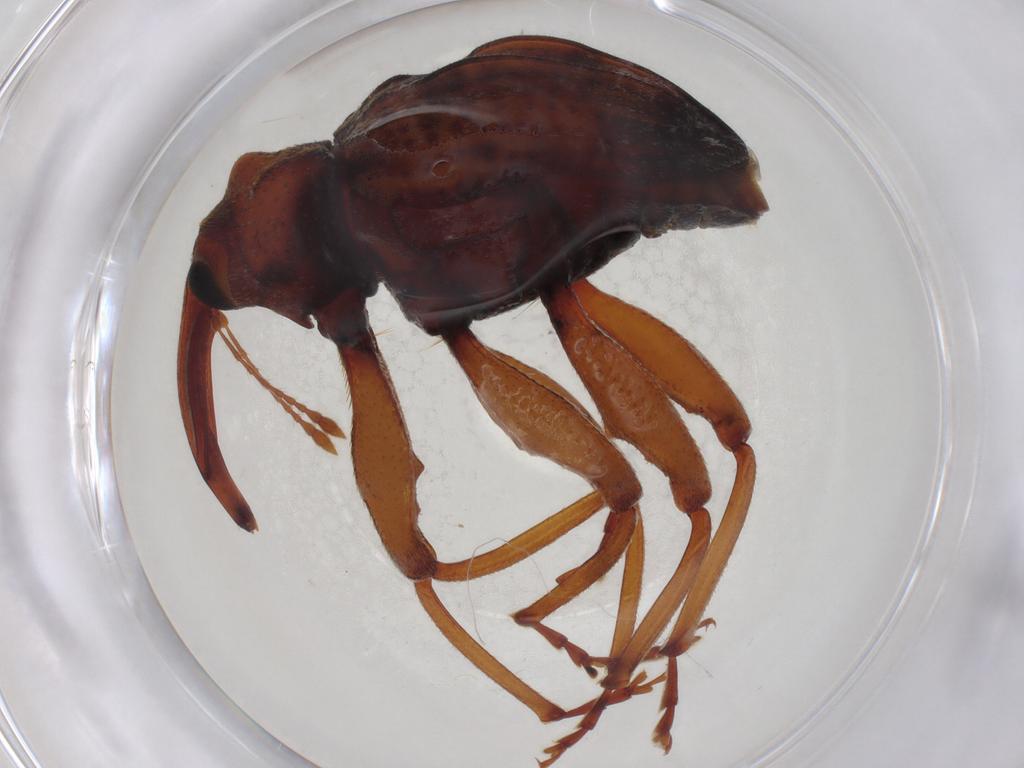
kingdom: Animalia
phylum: Arthropoda
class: Insecta
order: Coleoptera
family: Curculionidae
